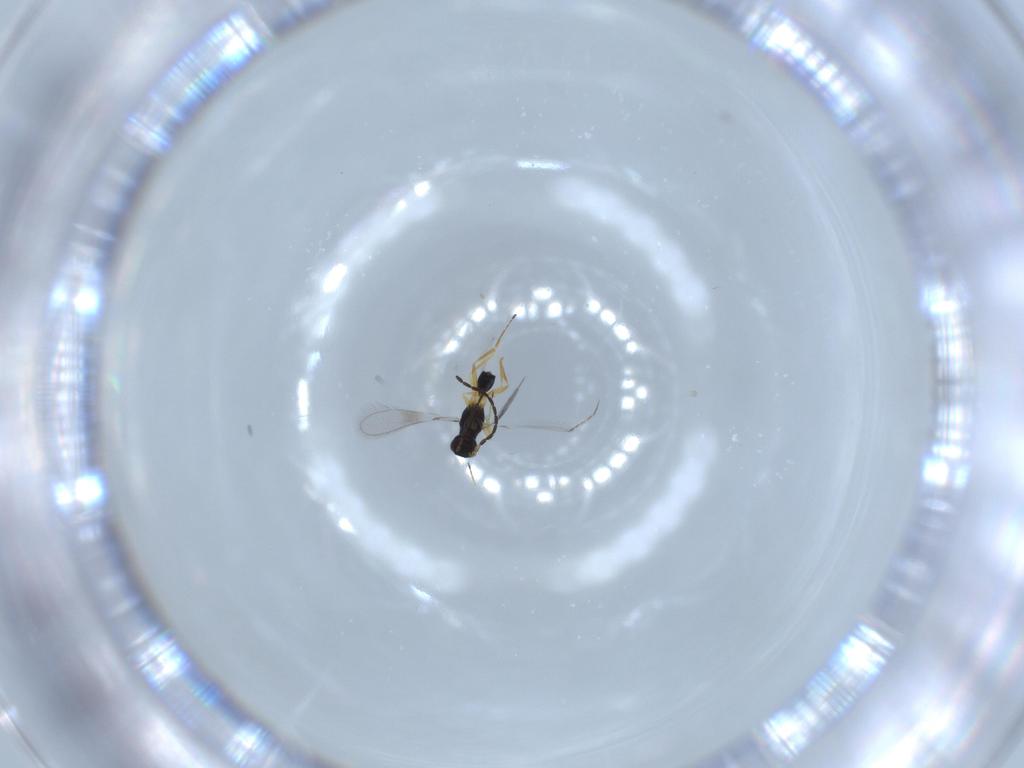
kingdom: Animalia
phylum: Arthropoda
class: Insecta
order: Hymenoptera
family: Mymaridae
